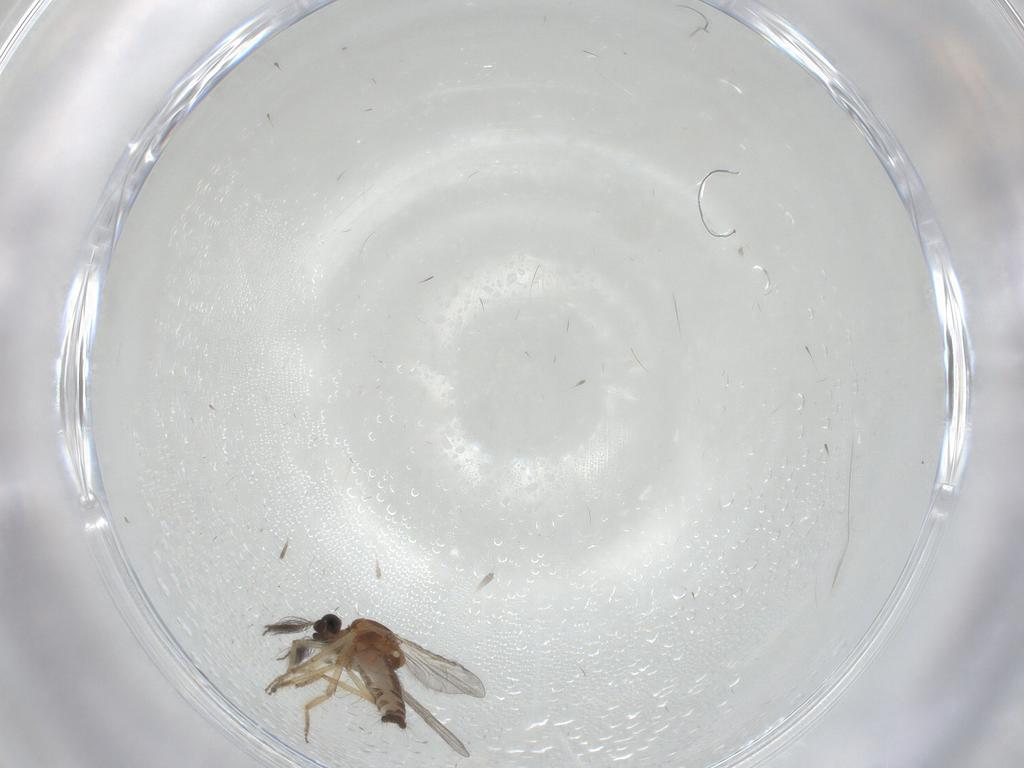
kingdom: Animalia
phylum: Arthropoda
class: Insecta
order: Diptera
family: Ceratopogonidae
